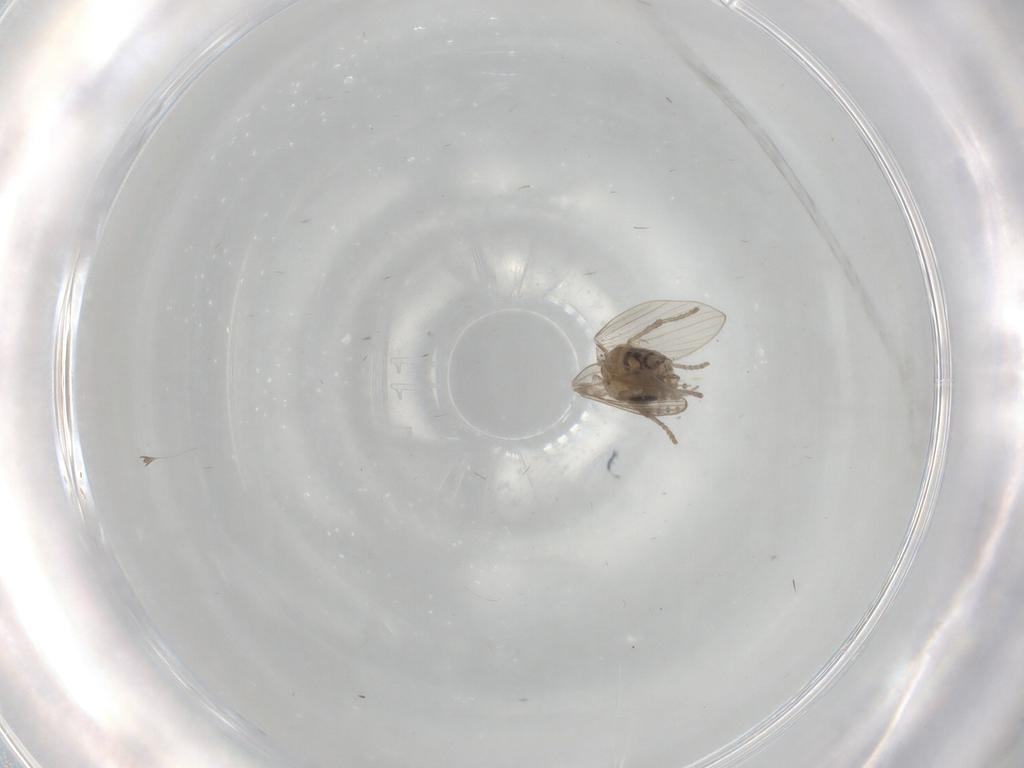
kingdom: Animalia
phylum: Arthropoda
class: Insecta
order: Diptera
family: Psychodidae
